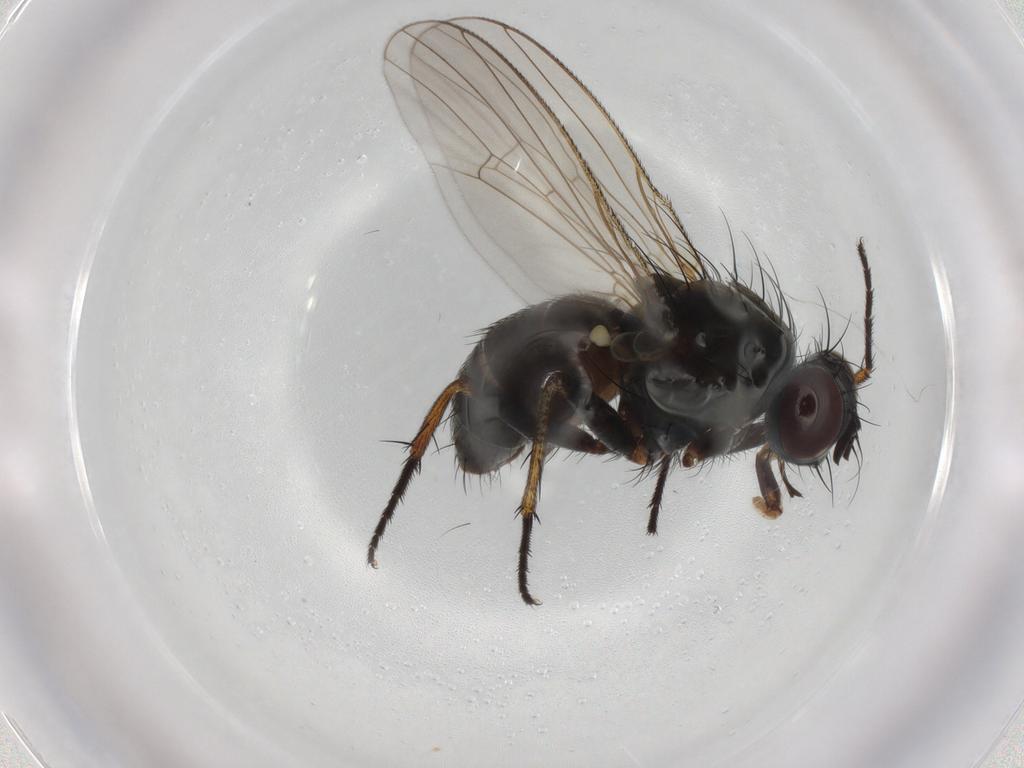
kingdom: Animalia
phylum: Arthropoda
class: Insecta
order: Diptera
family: Muscidae
